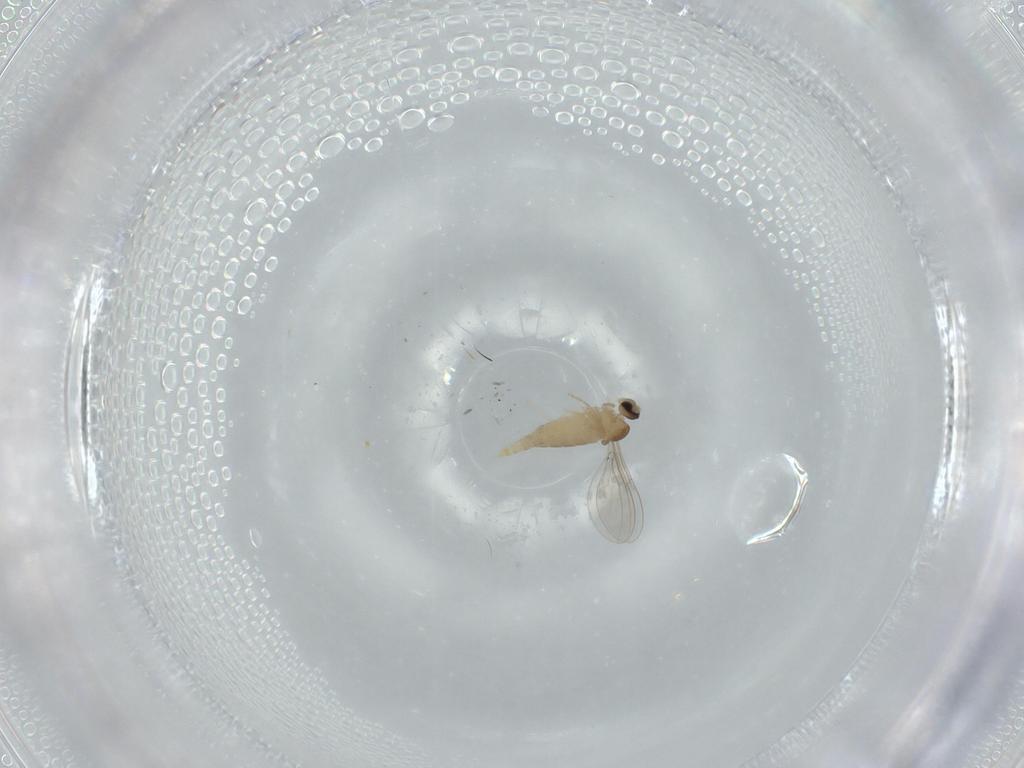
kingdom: Animalia
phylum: Arthropoda
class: Insecta
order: Diptera
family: Cecidomyiidae
